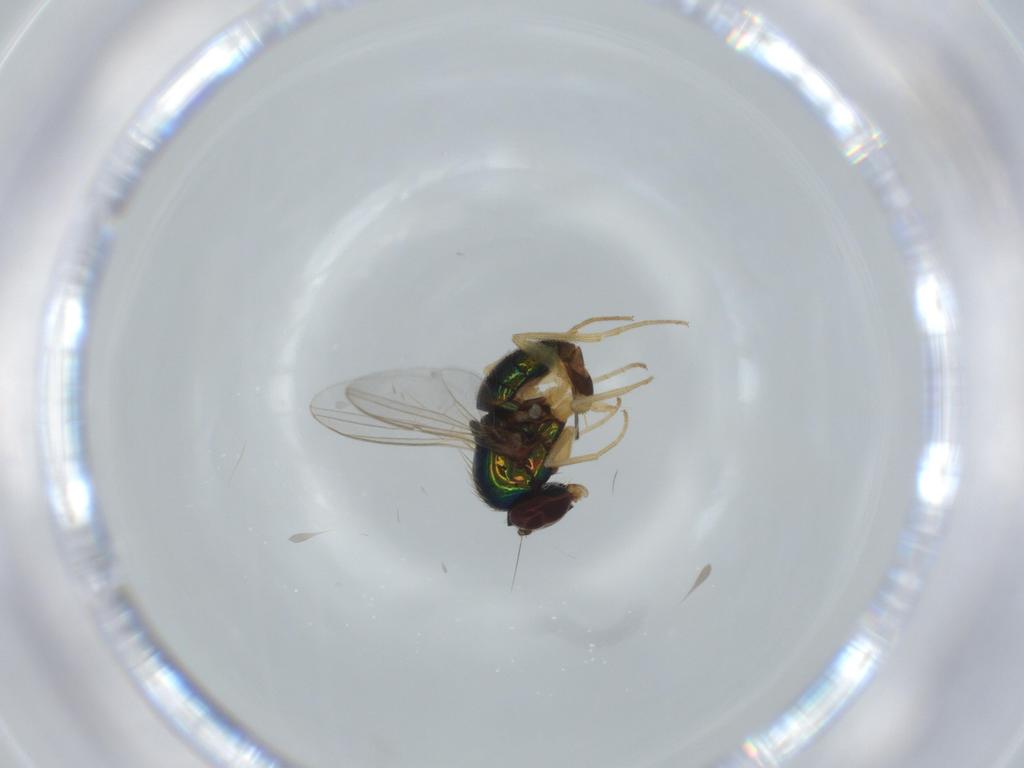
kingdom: Animalia
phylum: Arthropoda
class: Insecta
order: Diptera
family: Dolichopodidae
